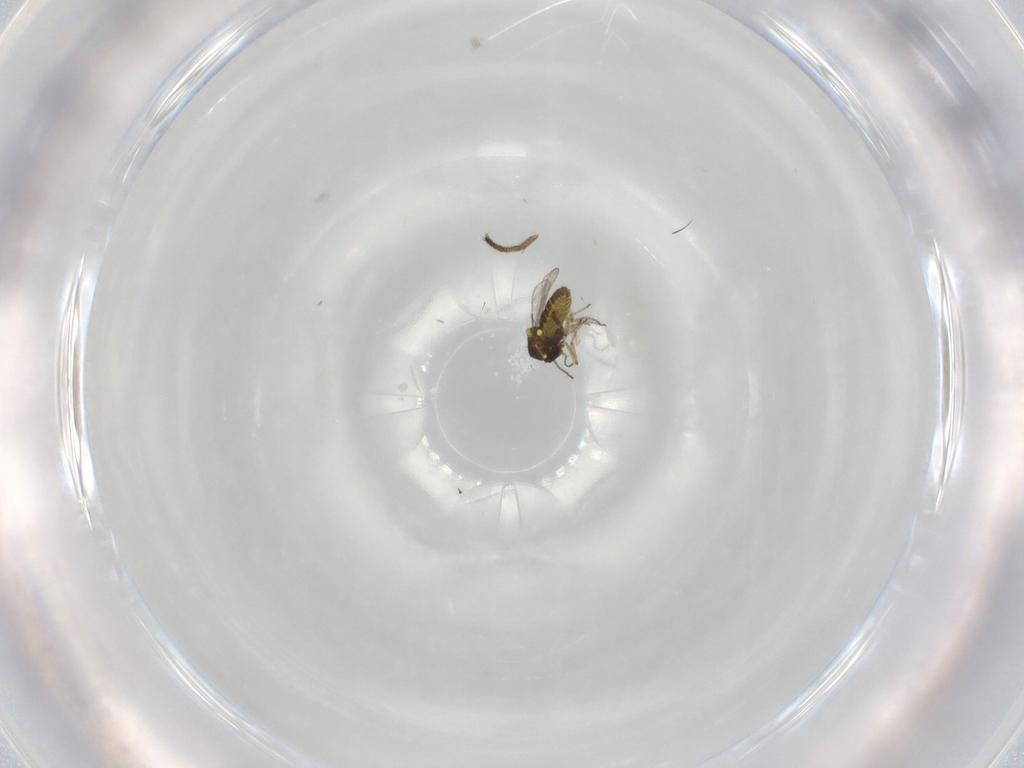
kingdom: Animalia
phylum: Arthropoda
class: Insecta
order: Diptera
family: Ceratopogonidae
